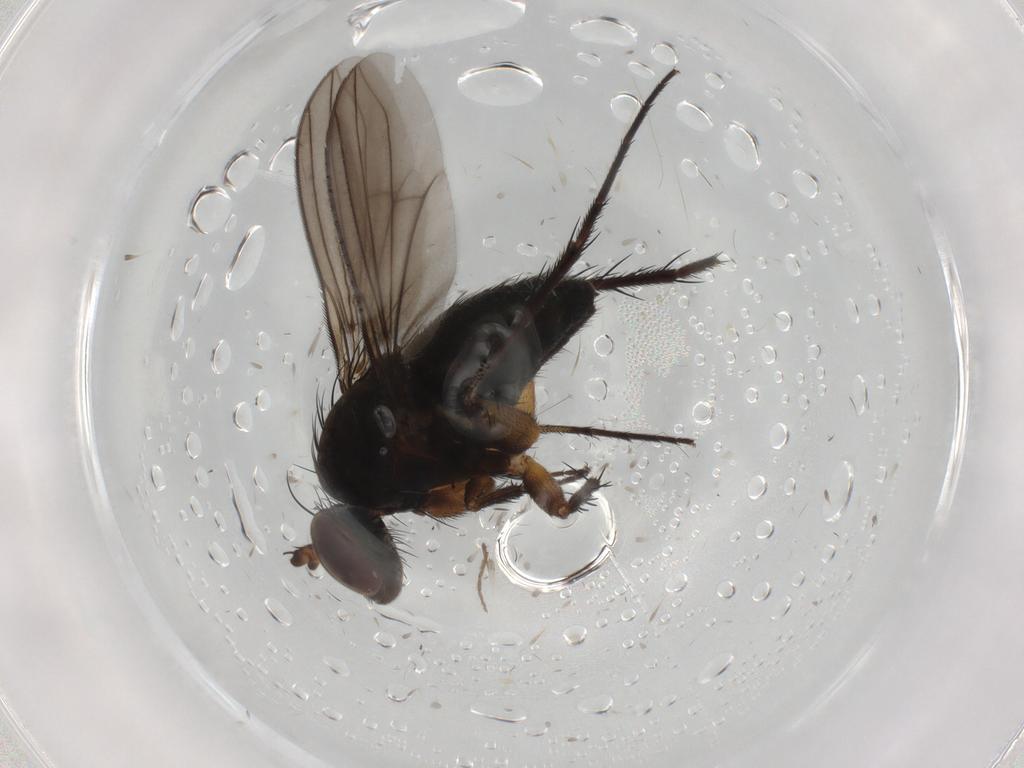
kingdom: Animalia
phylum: Arthropoda
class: Insecta
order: Diptera
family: Dolichopodidae
